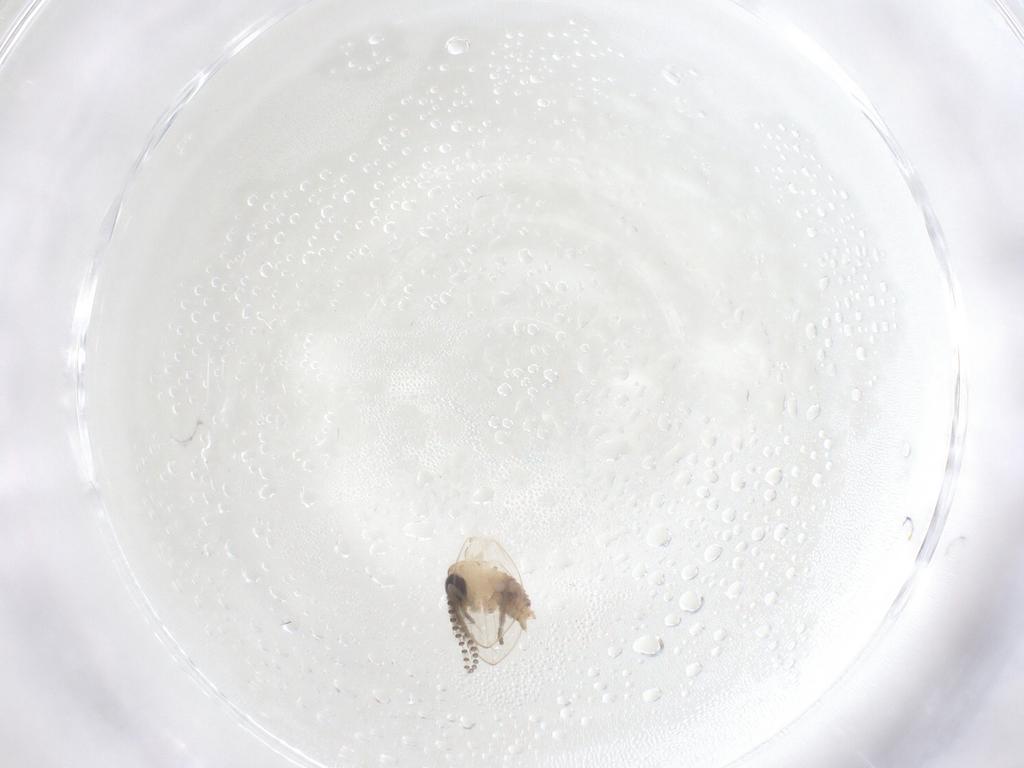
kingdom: Animalia
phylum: Arthropoda
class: Insecta
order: Diptera
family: Psychodidae
